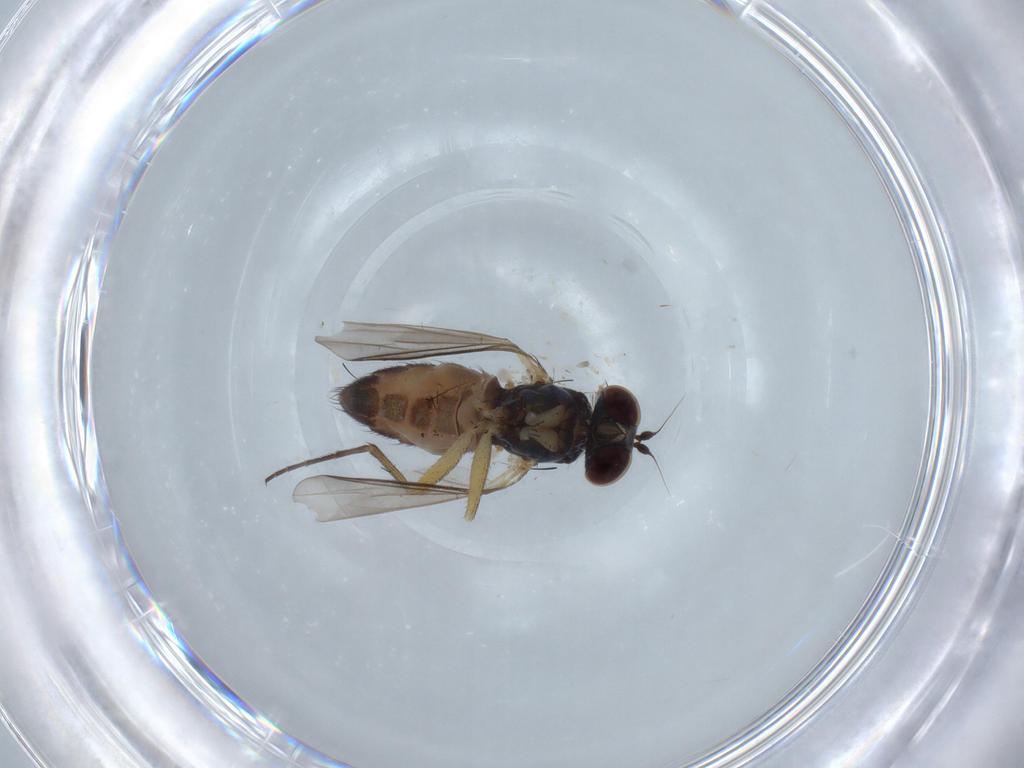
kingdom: Animalia
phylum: Arthropoda
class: Insecta
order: Diptera
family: Dolichopodidae
